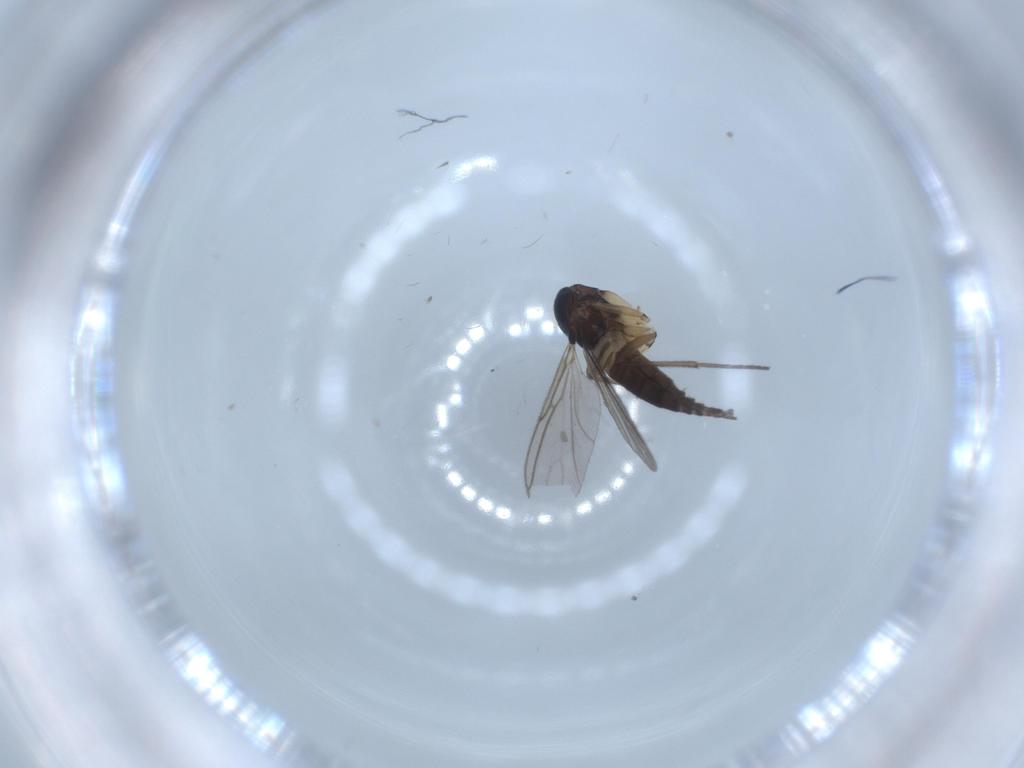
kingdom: Animalia
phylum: Arthropoda
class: Insecta
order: Diptera
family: Sciaridae
